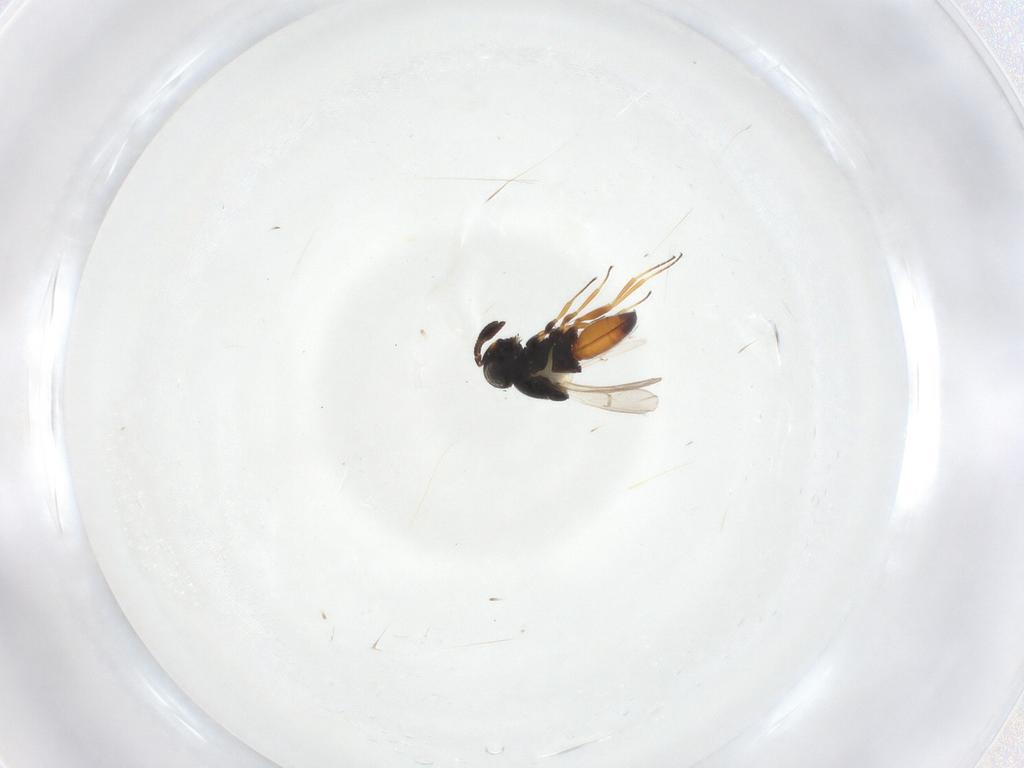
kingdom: Animalia
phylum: Arthropoda
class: Insecta
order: Hymenoptera
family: Scelionidae
